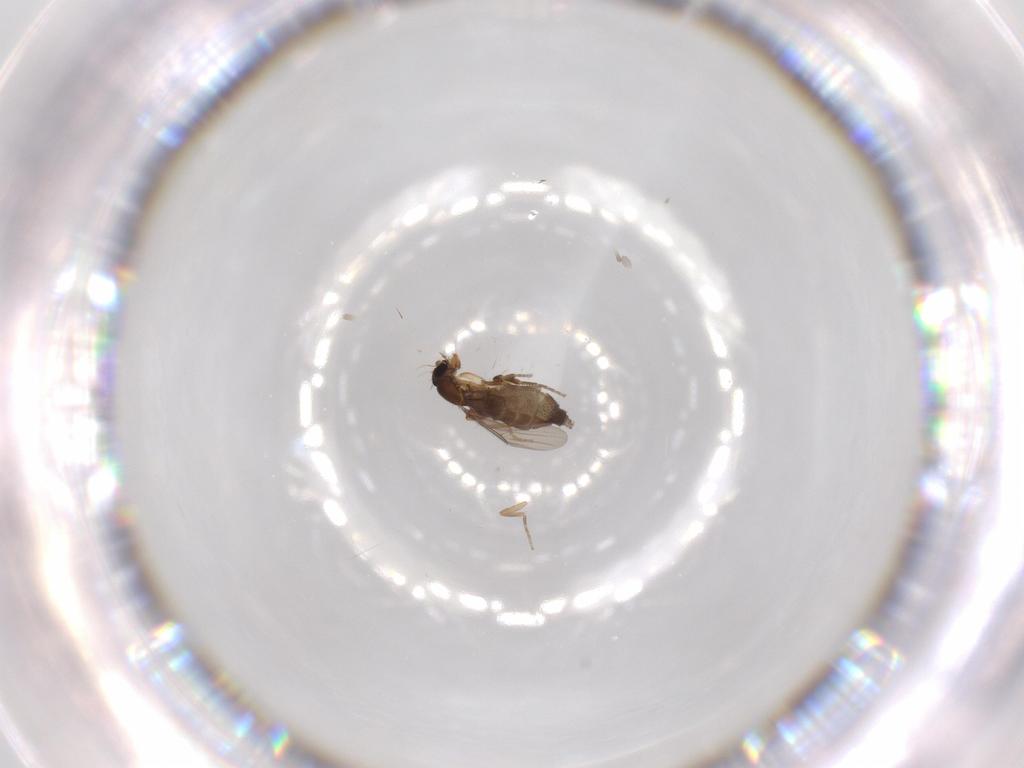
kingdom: Animalia
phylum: Arthropoda
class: Insecta
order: Diptera
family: Phoridae
